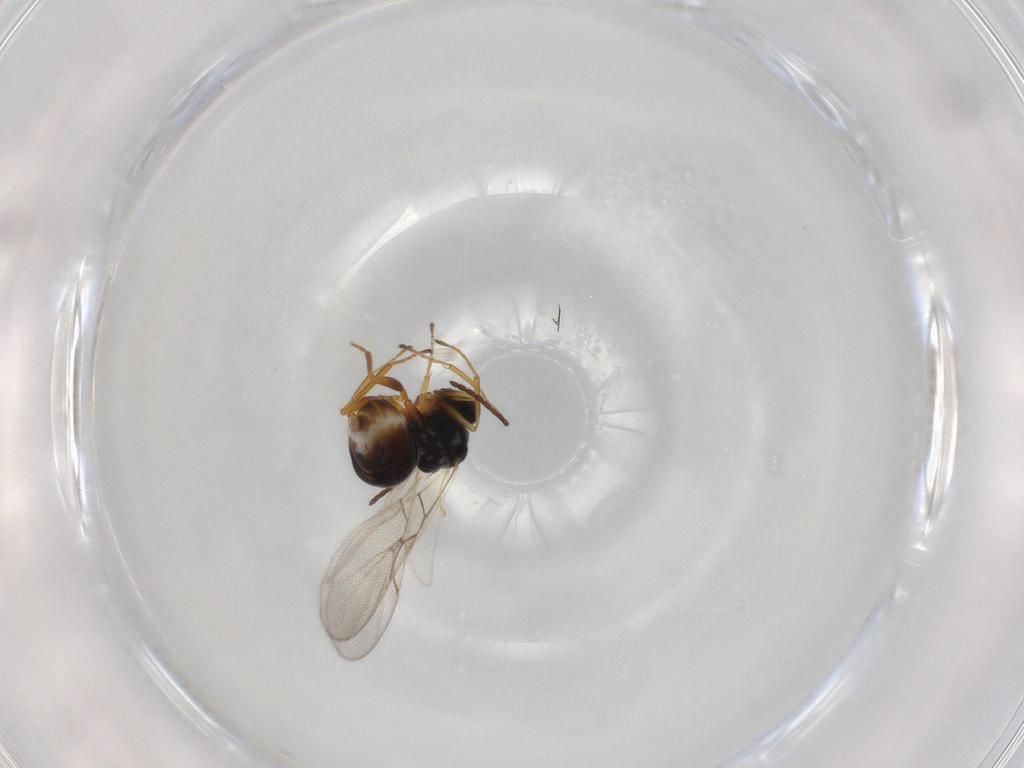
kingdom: Animalia
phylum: Arthropoda
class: Insecta
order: Hymenoptera
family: Figitidae
